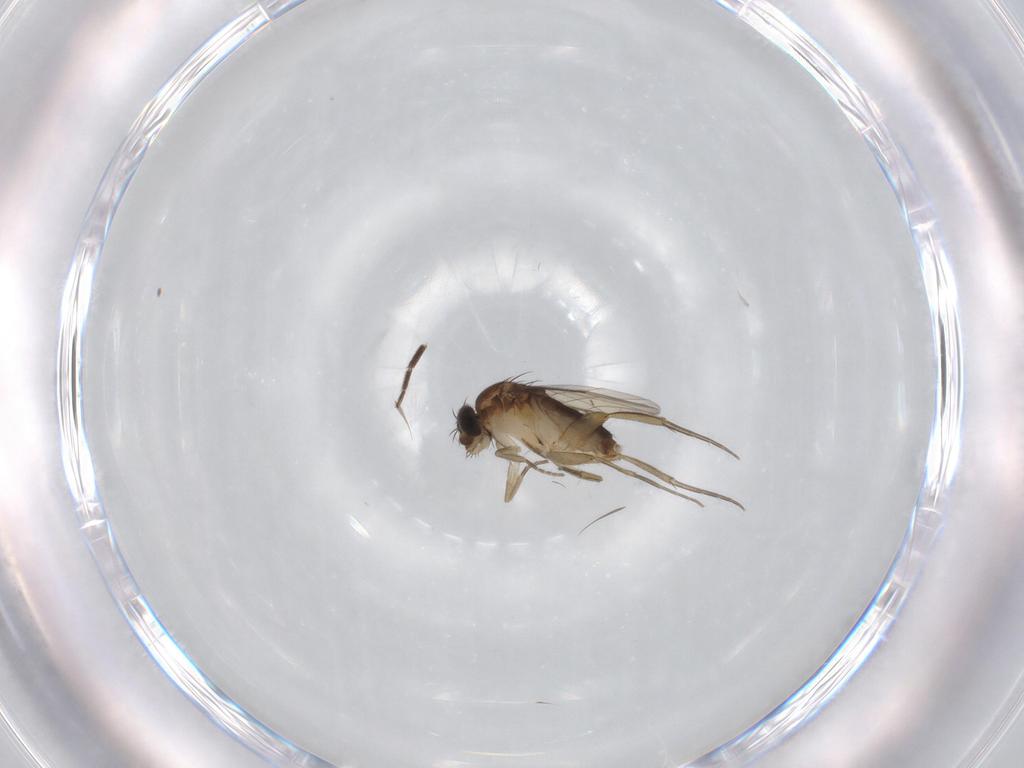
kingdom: Animalia
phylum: Arthropoda
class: Insecta
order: Diptera
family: Phoridae
